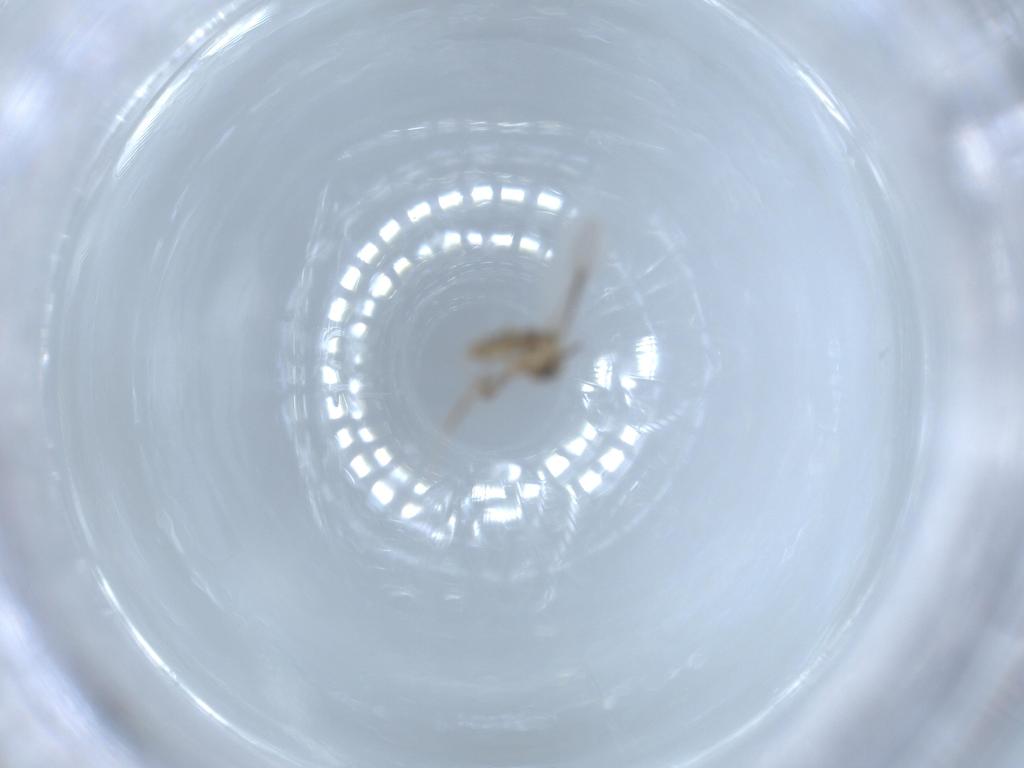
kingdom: Animalia
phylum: Arthropoda
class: Insecta
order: Diptera
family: Chironomidae
